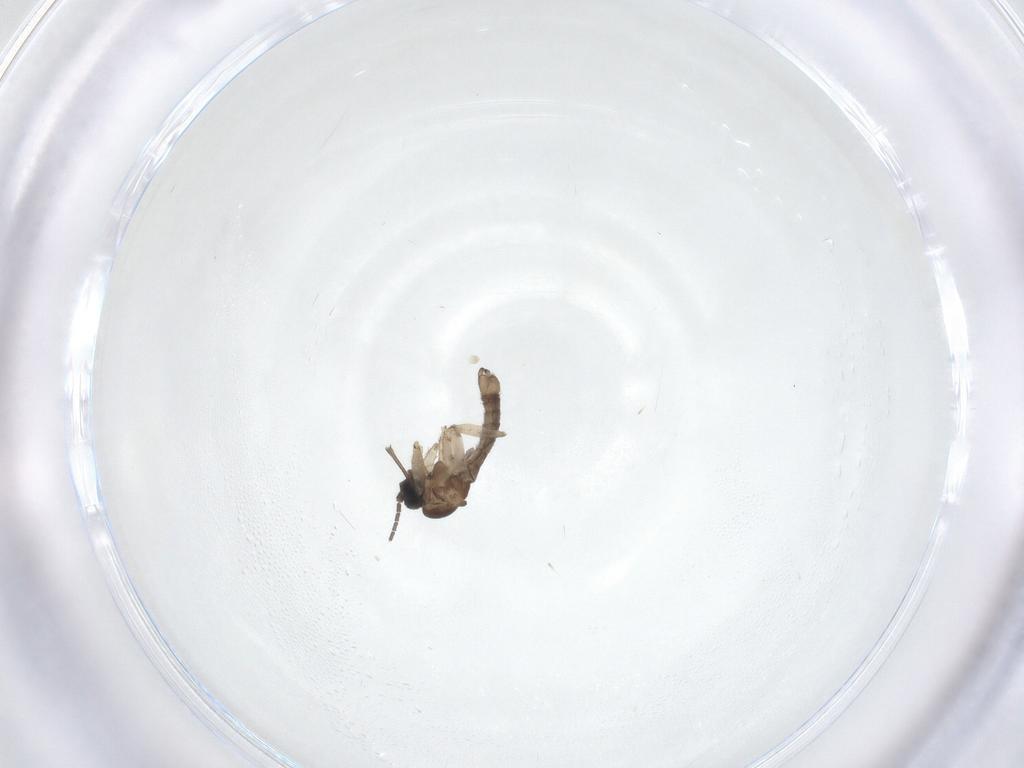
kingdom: Animalia
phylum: Arthropoda
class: Insecta
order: Diptera
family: Sciaridae
